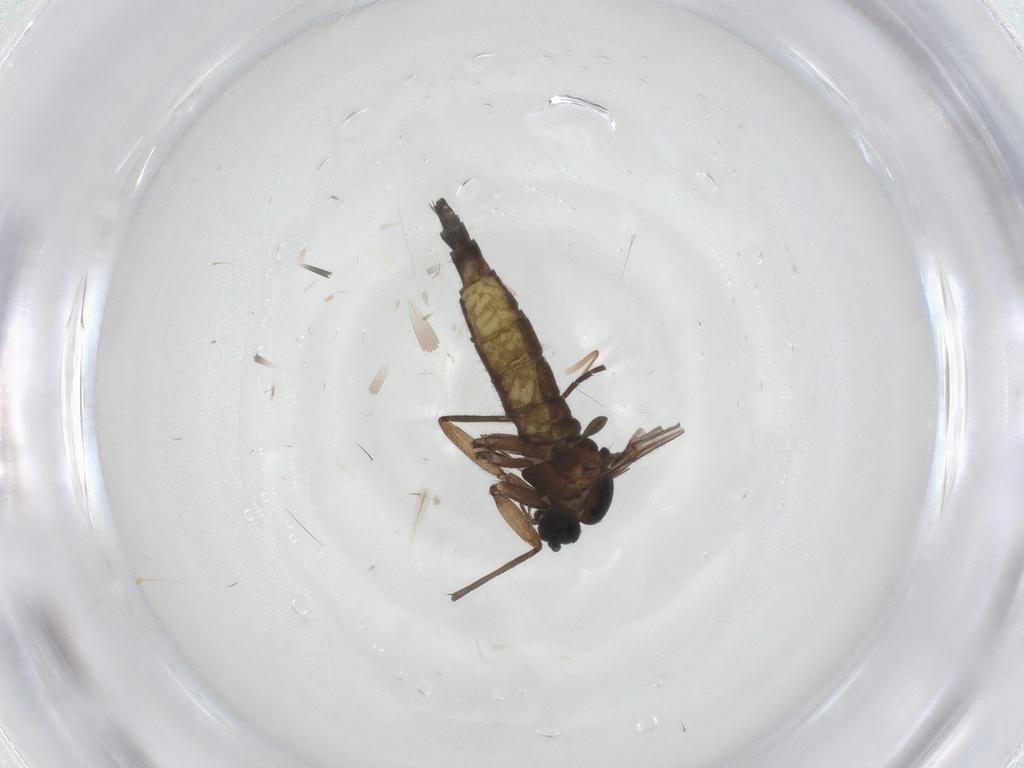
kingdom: Animalia
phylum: Arthropoda
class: Insecta
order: Diptera
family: Sciaridae
